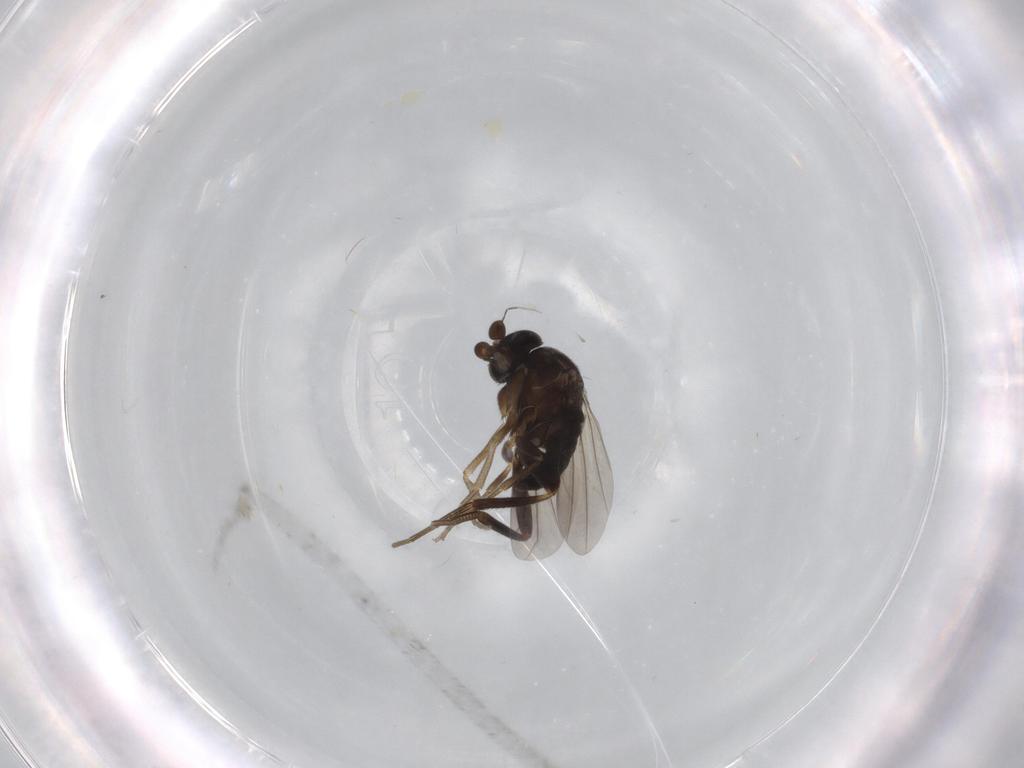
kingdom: Animalia
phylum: Arthropoda
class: Insecta
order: Diptera
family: Phoridae
